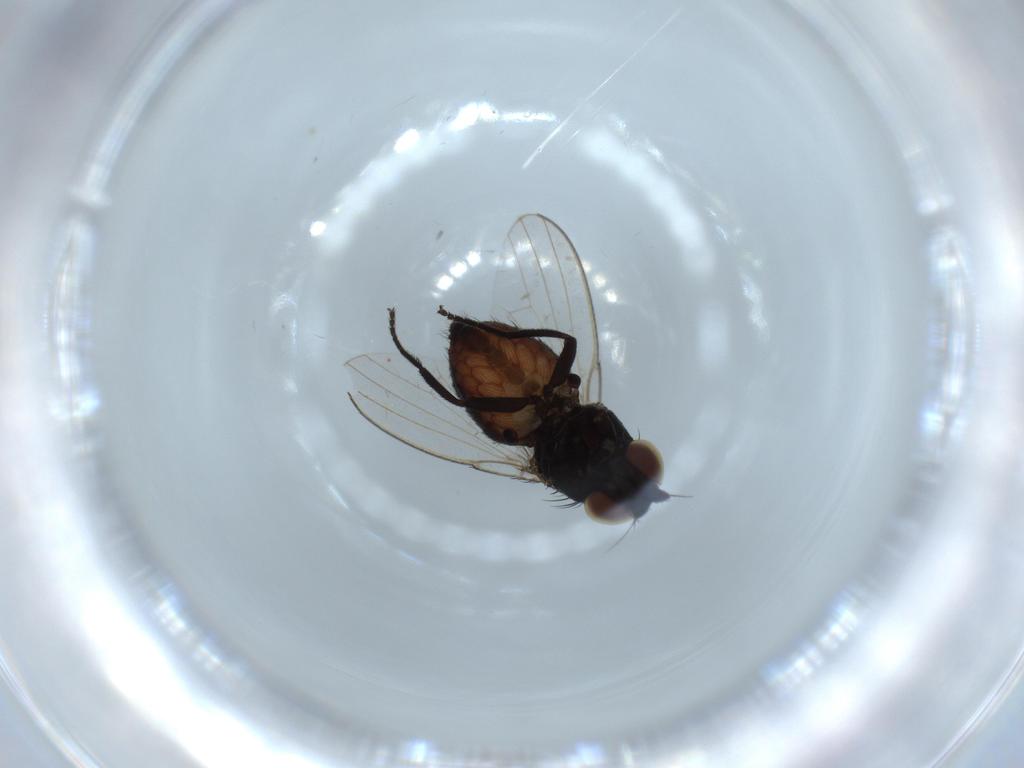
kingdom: Animalia
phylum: Arthropoda
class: Insecta
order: Diptera
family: Milichiidae
